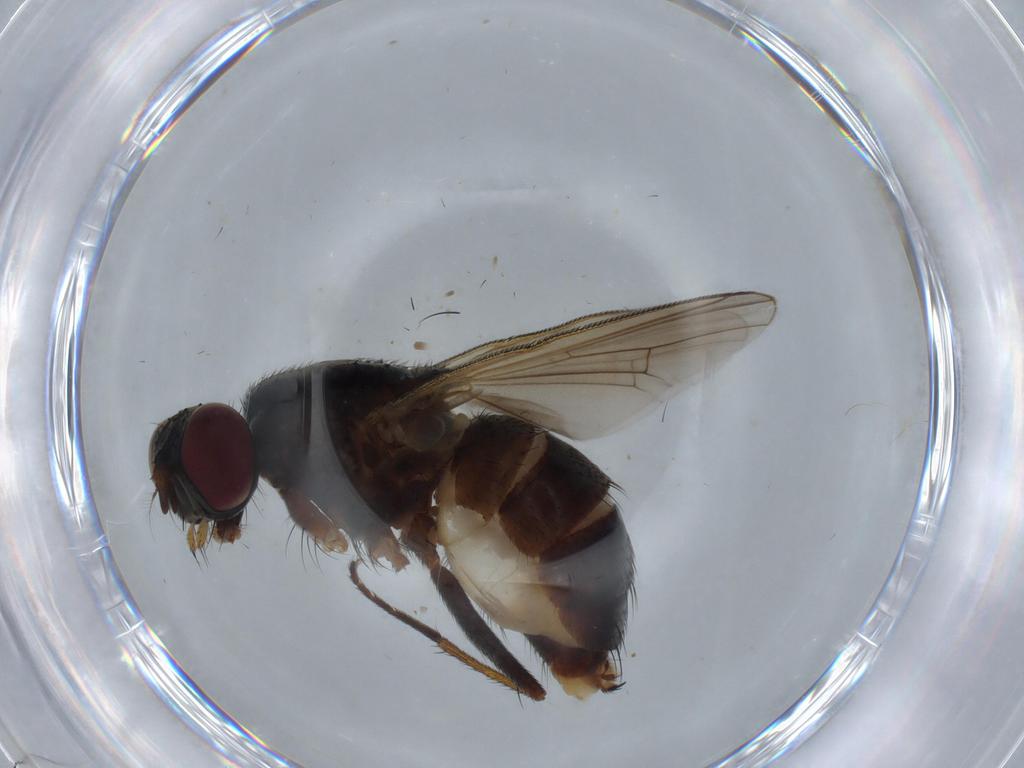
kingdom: Animalia
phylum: Arthropoda
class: Insecta
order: Diptera
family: Muscidae
